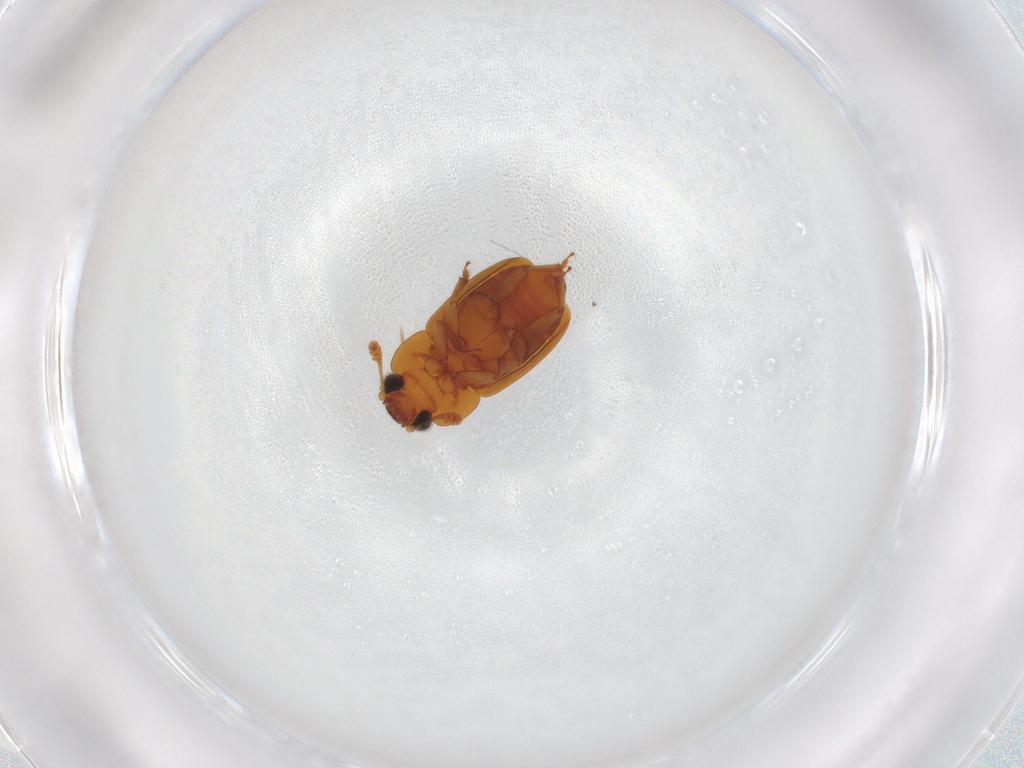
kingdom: Animalia
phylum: Arthropoda
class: Insecta
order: Coleoptera
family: Nitidulidae
